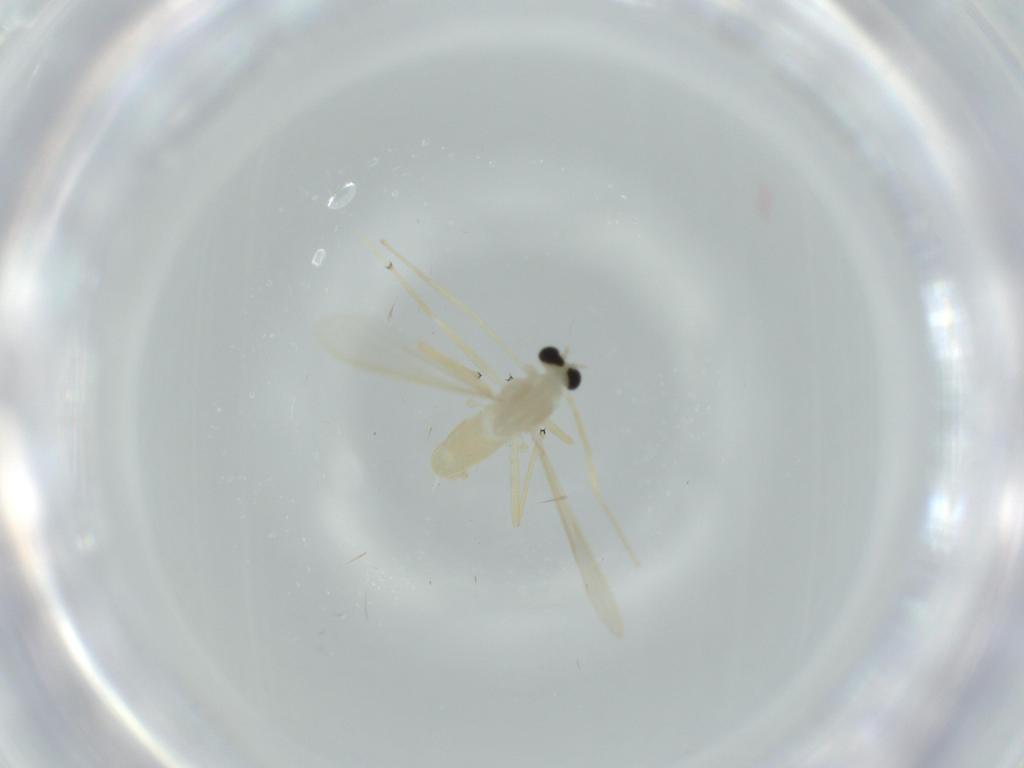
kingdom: Animalia
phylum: Arthropoda
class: Insecta
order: Diptera
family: Chironomidae
